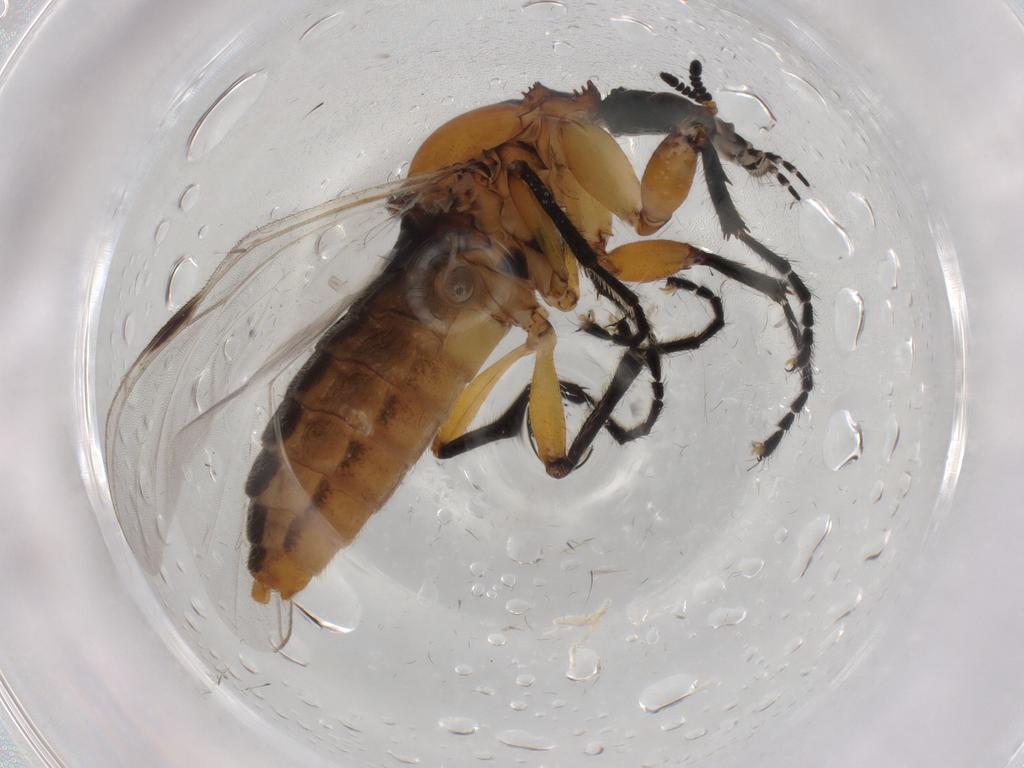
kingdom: Animalia
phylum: Arthropoda
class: Insecta
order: Diptera
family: Bibionidae
